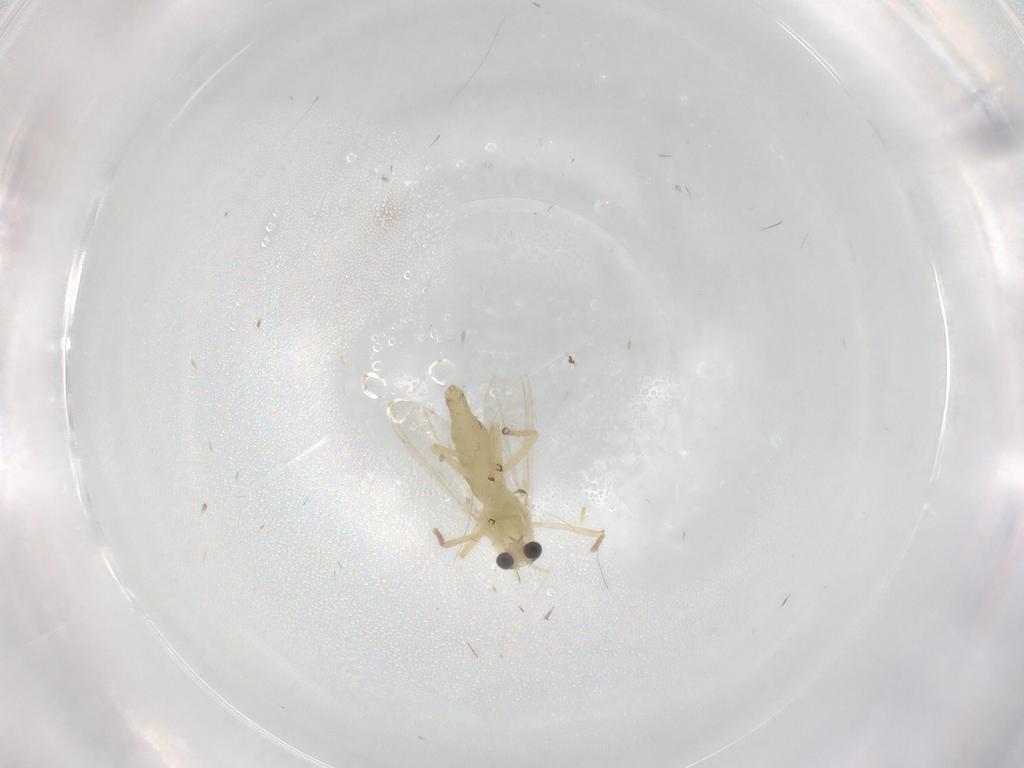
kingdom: Animalia
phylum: Arthropoda
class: Insecta
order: Diptera
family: Chironomidae
